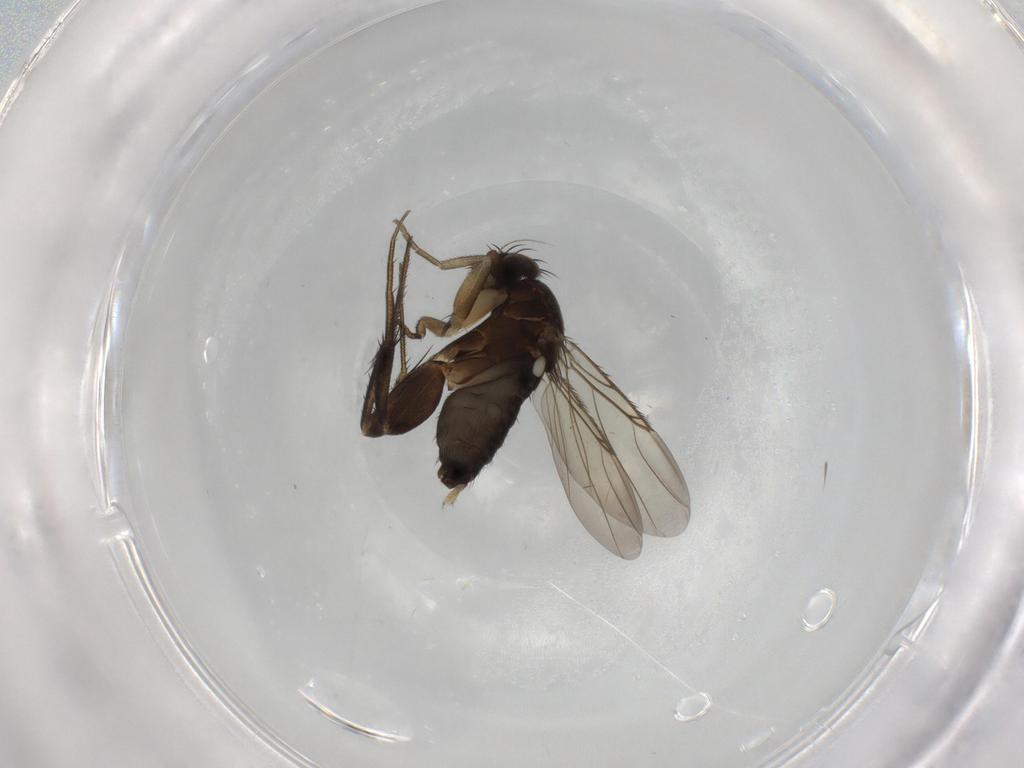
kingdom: Animalia
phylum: Arthropoda
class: Insecta
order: Diptera
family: Phoridae
